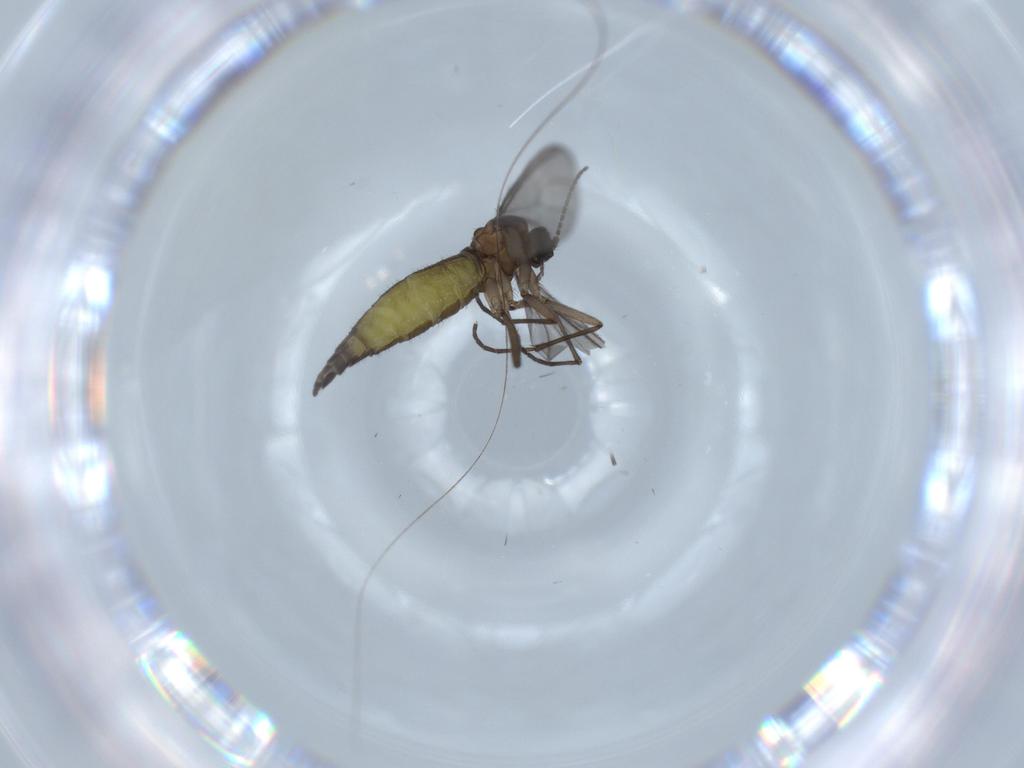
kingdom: Animalia
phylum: Arthropoda
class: Insecta
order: Diptera
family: Sciaridae
